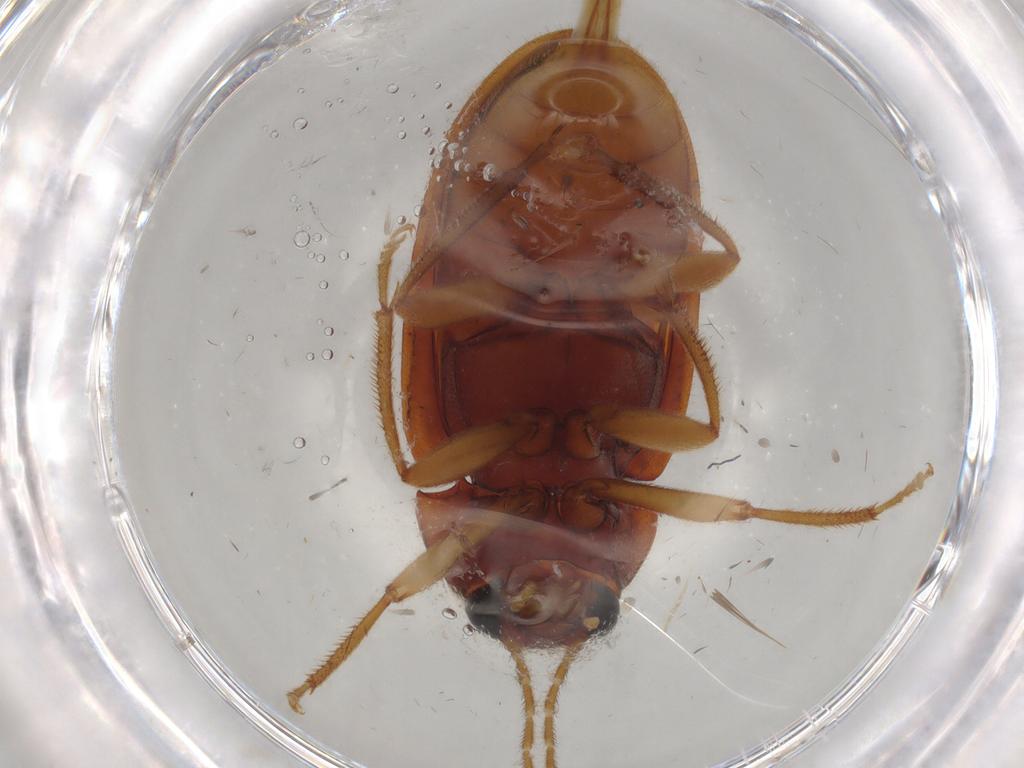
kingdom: Animalia
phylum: Arthropoda
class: Insecta
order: Coleoptera
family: Ptilodactylidae
